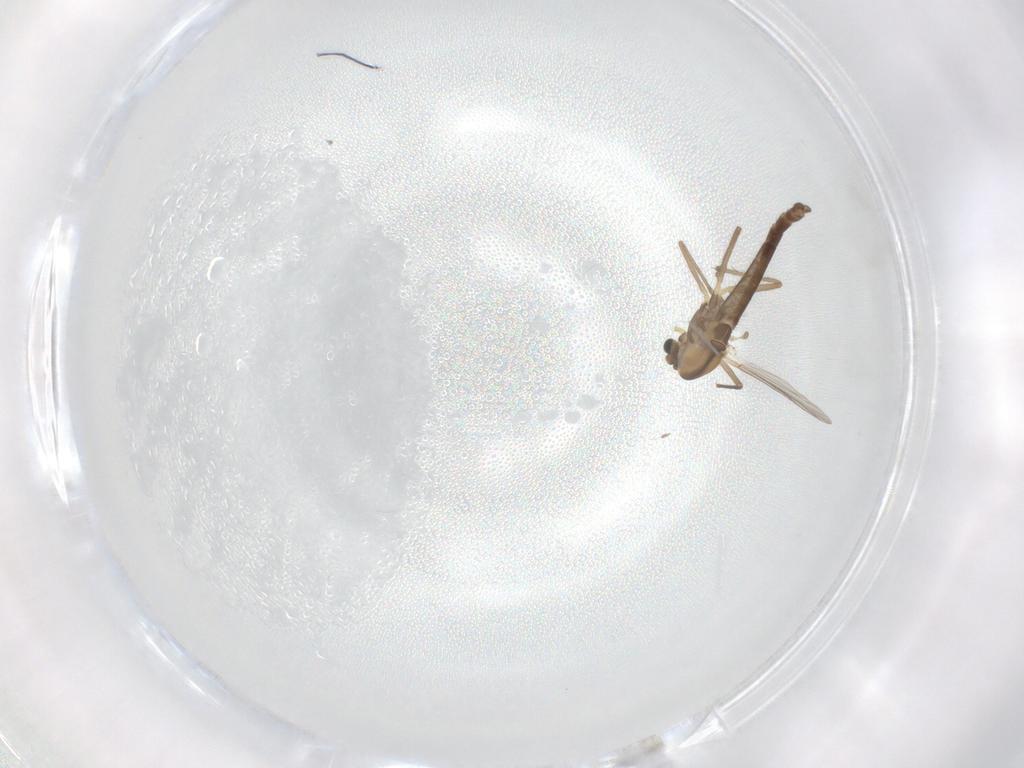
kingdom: Animalia
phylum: Arthropoda
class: Insecta
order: Diptera
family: Chironomidae
